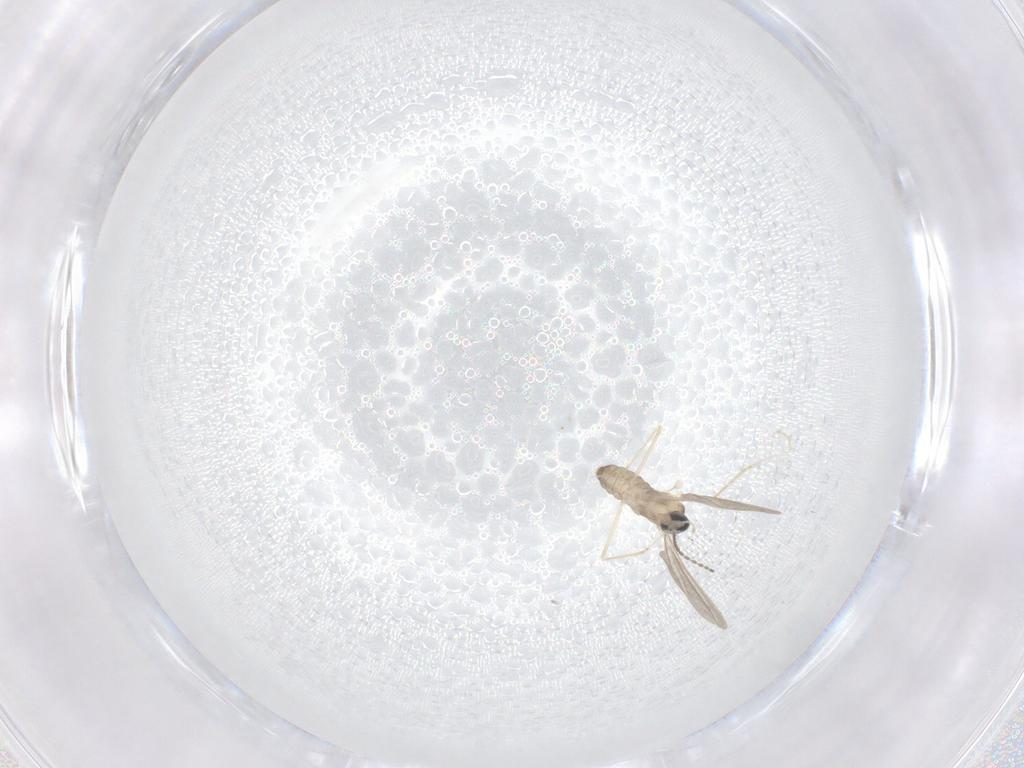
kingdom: Animalia
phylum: Arthropoda
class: Insecta
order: Diptera
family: Cecidomyiidae
